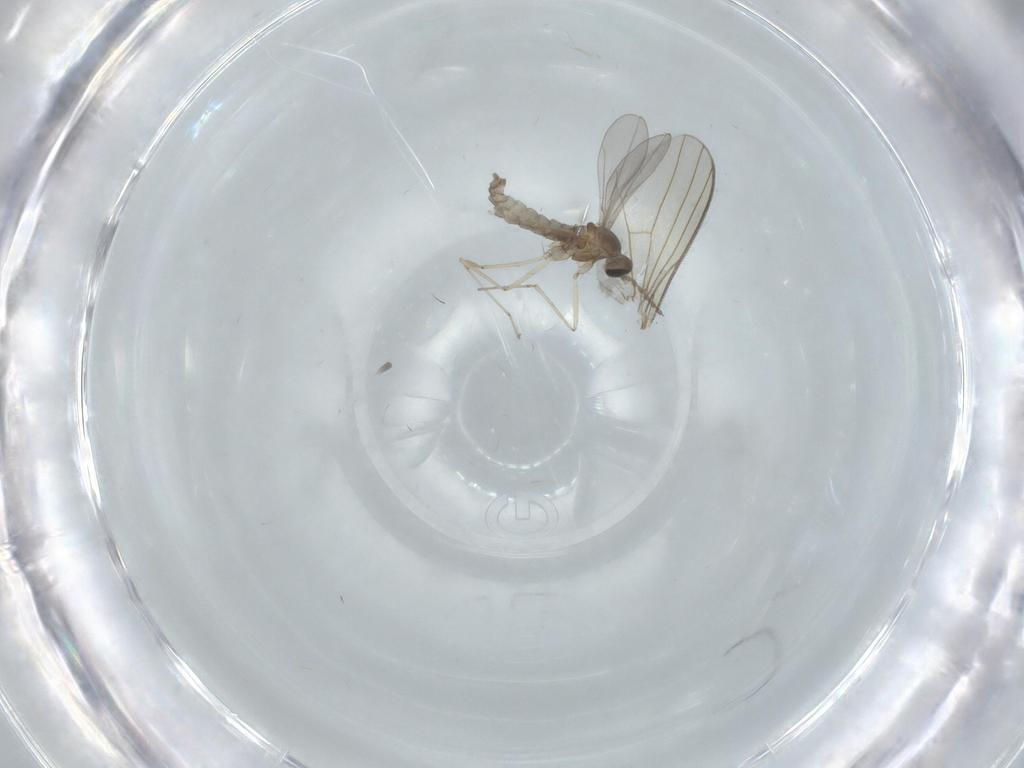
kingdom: Animalia
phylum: Arthropoda
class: Insecta
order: Diptera
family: Dolichopodidae
